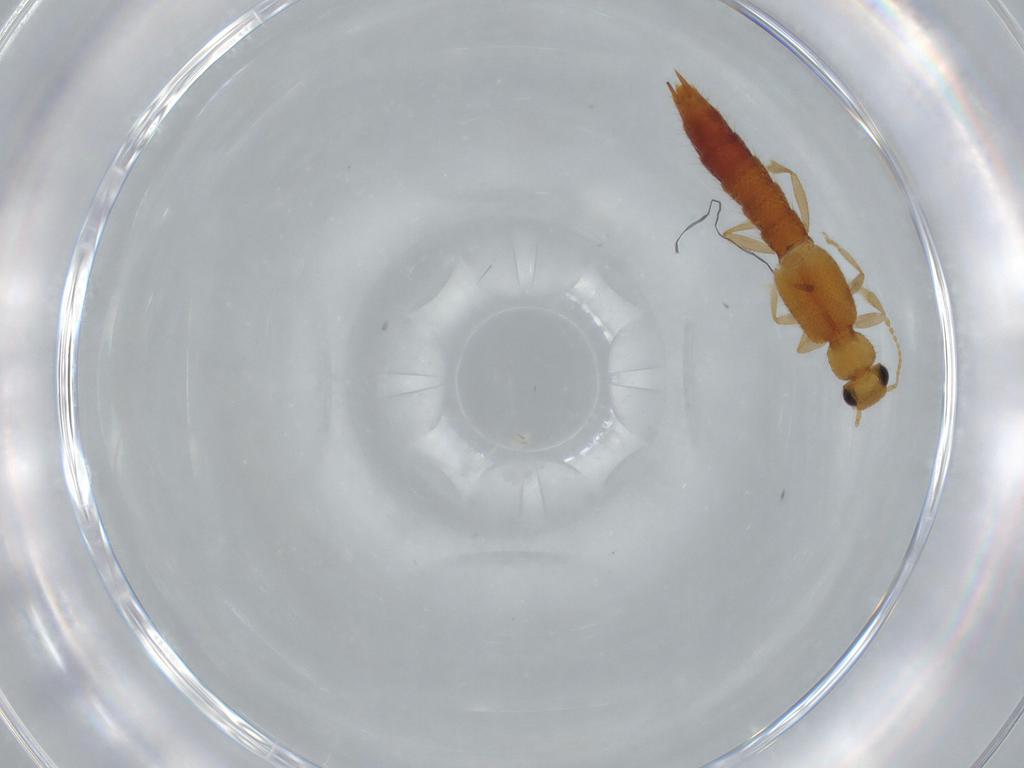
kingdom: Animalia
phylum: Arthropoda
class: Insecta
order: Coleoptera
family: Staphylinidae
